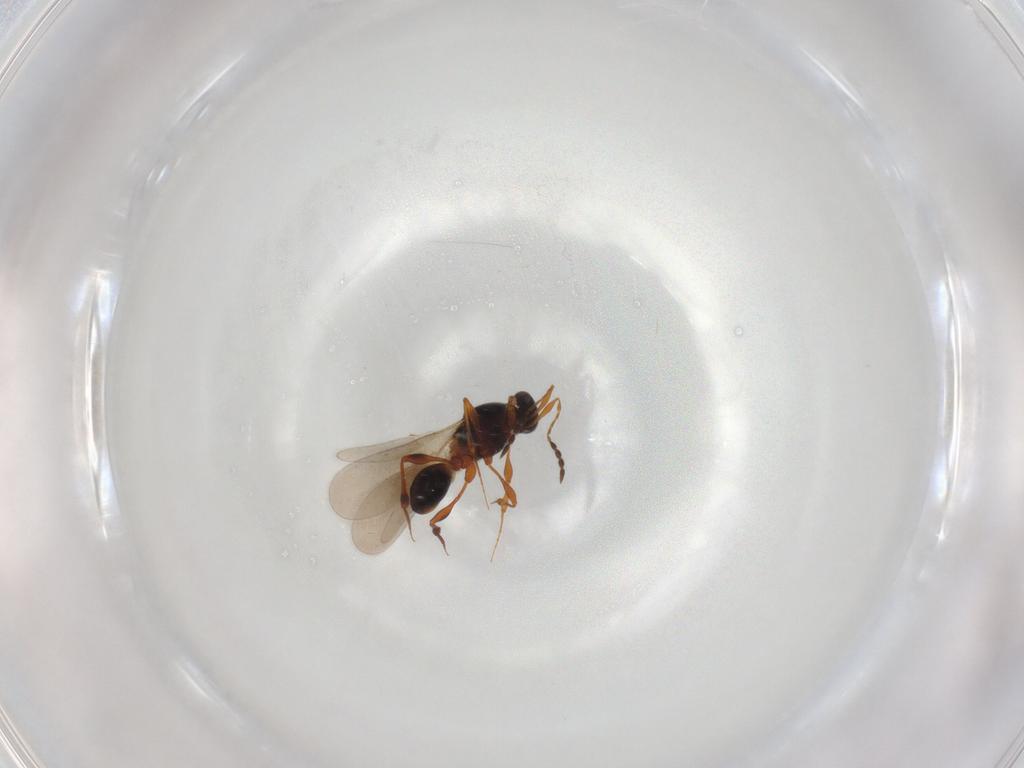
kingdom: Animalia
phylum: Arthropoda
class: Insecta
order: Hymenoptera
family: Platygastridae
